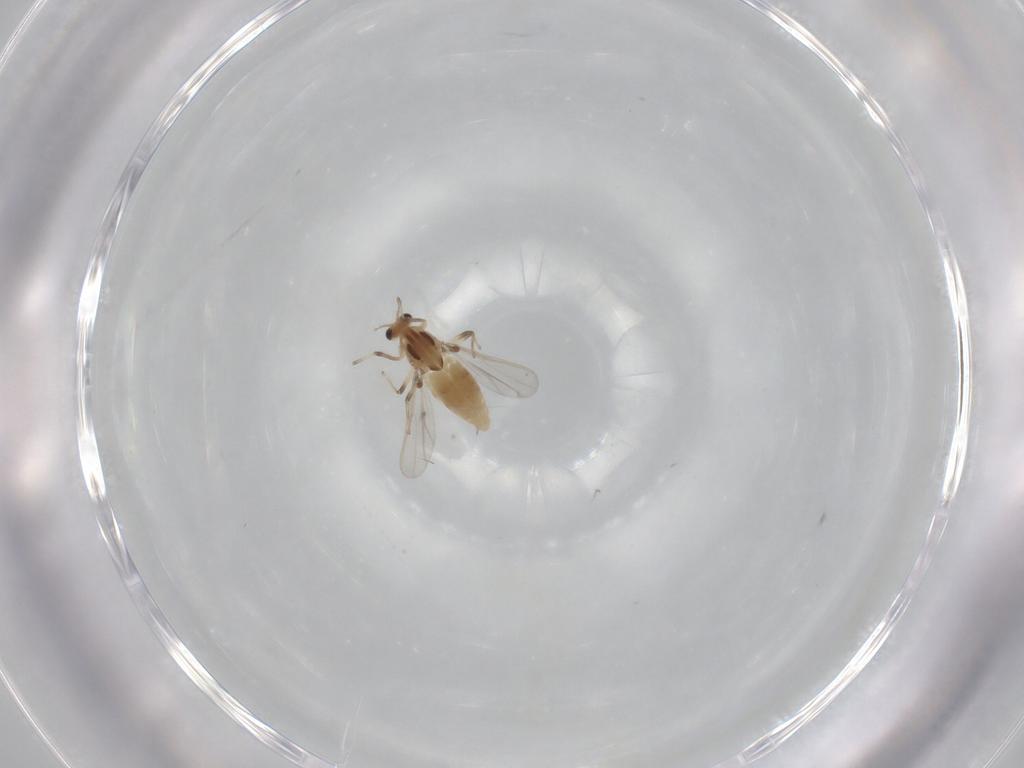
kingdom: Animalia
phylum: Arthropoda
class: Insecta
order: Diptera
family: Chironomidae
